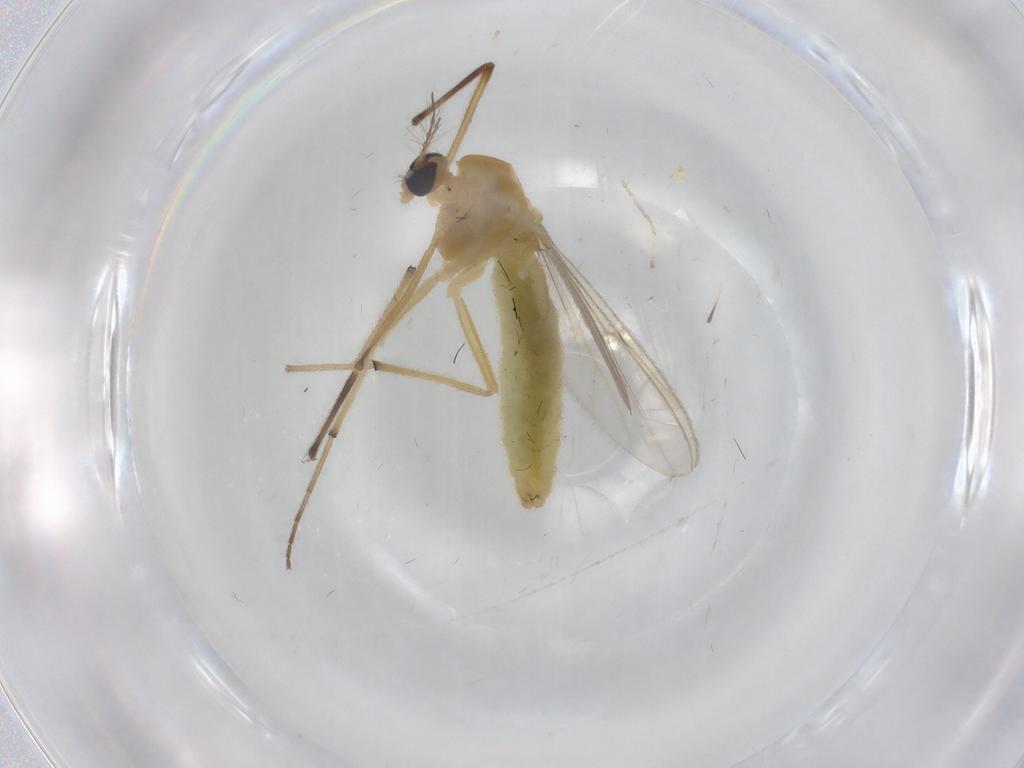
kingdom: Animalia
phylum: Arthropoda
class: Insecta
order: Diptera
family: Chironomidae
